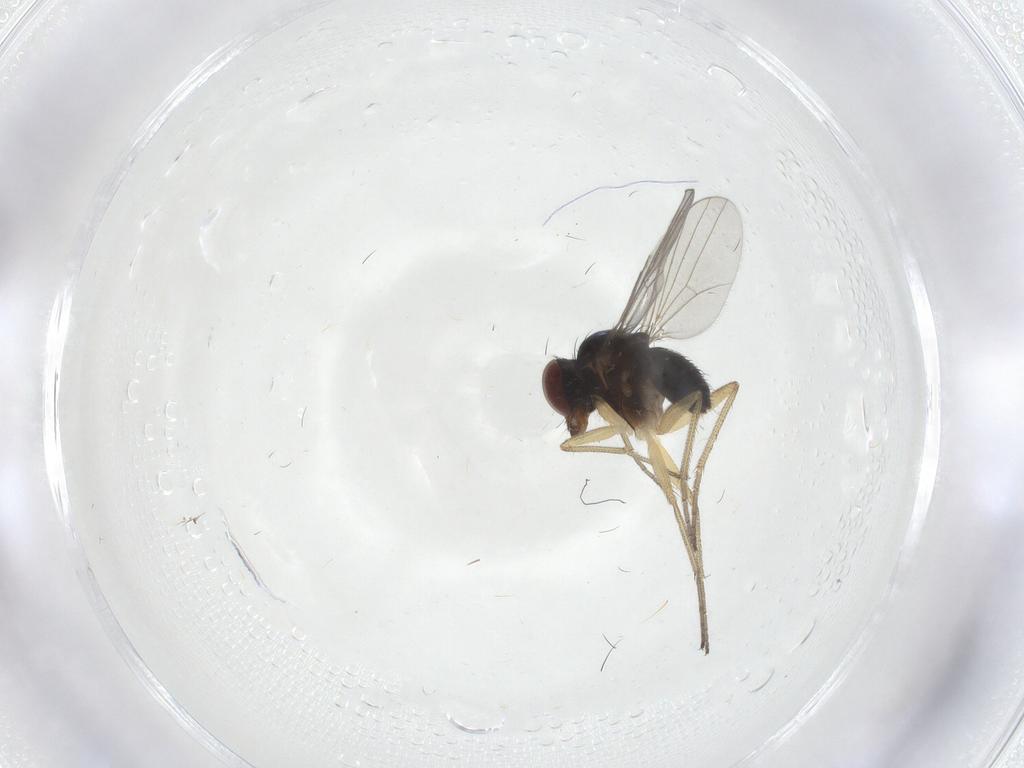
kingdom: Animalia
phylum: Arthropoda
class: Insecta
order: Diptera
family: Dolichopodidae
